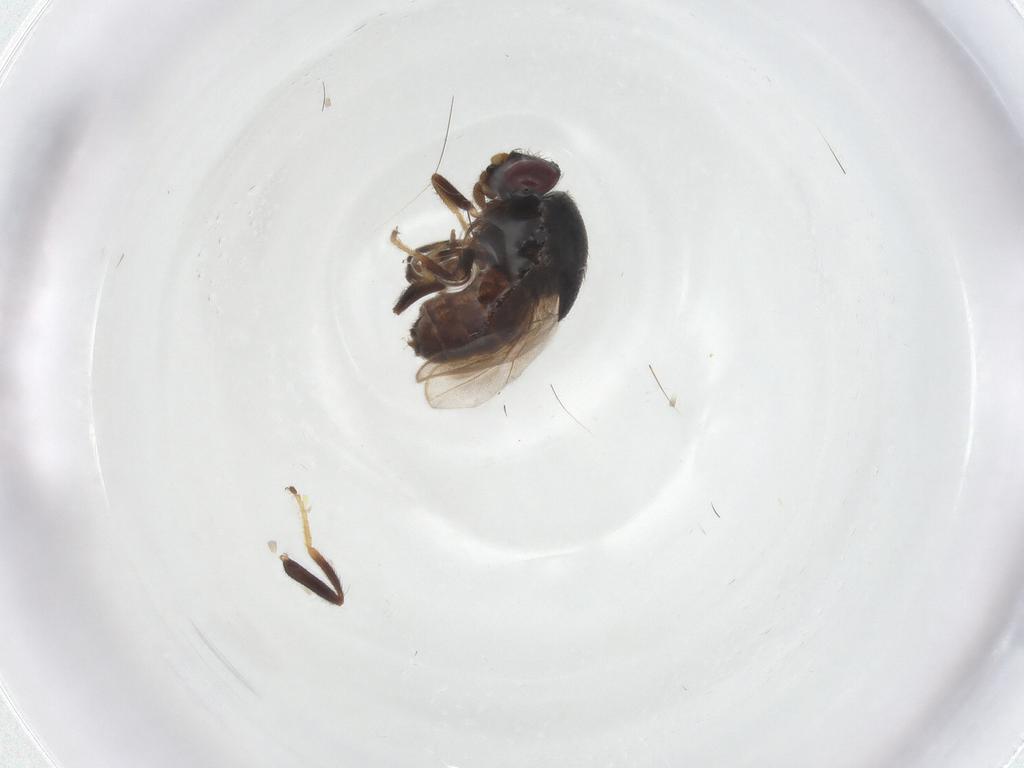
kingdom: Animalia
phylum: Arthropoda
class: Insecta
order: Diptera
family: Chloropidae
